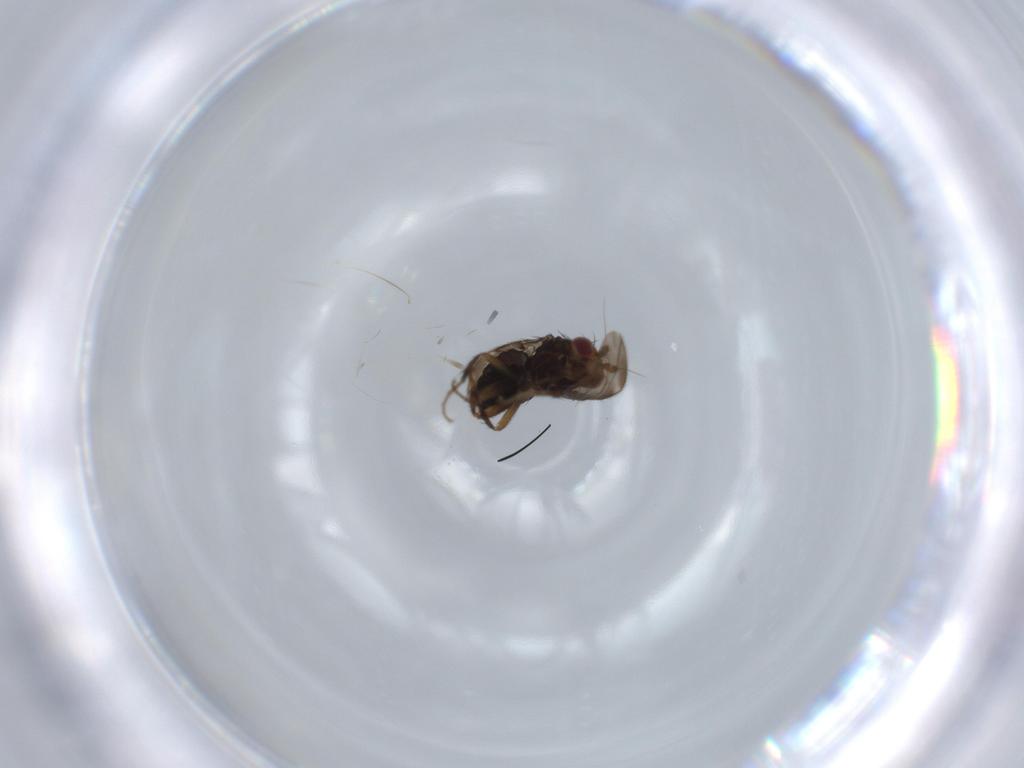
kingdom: Animalia
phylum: Arthropoda
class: Insecta
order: Diptera
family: Sphaeroceridae
